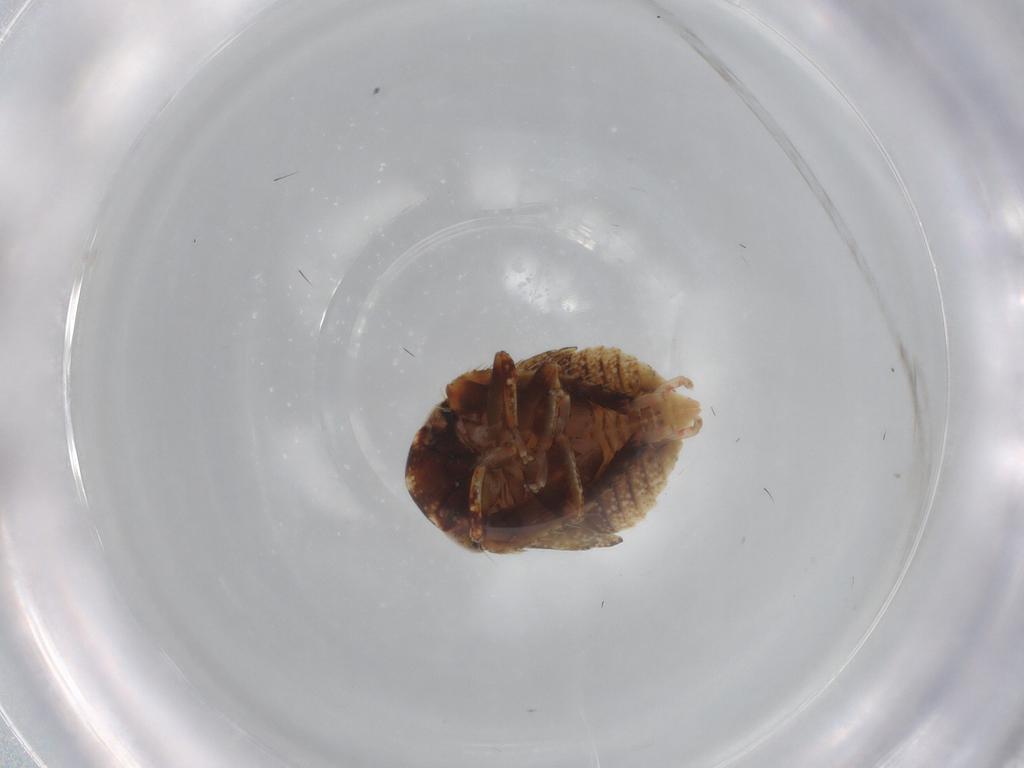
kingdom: Animalia
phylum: Arthropoda
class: Insecta
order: Hemiptera
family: Cicadellidae
